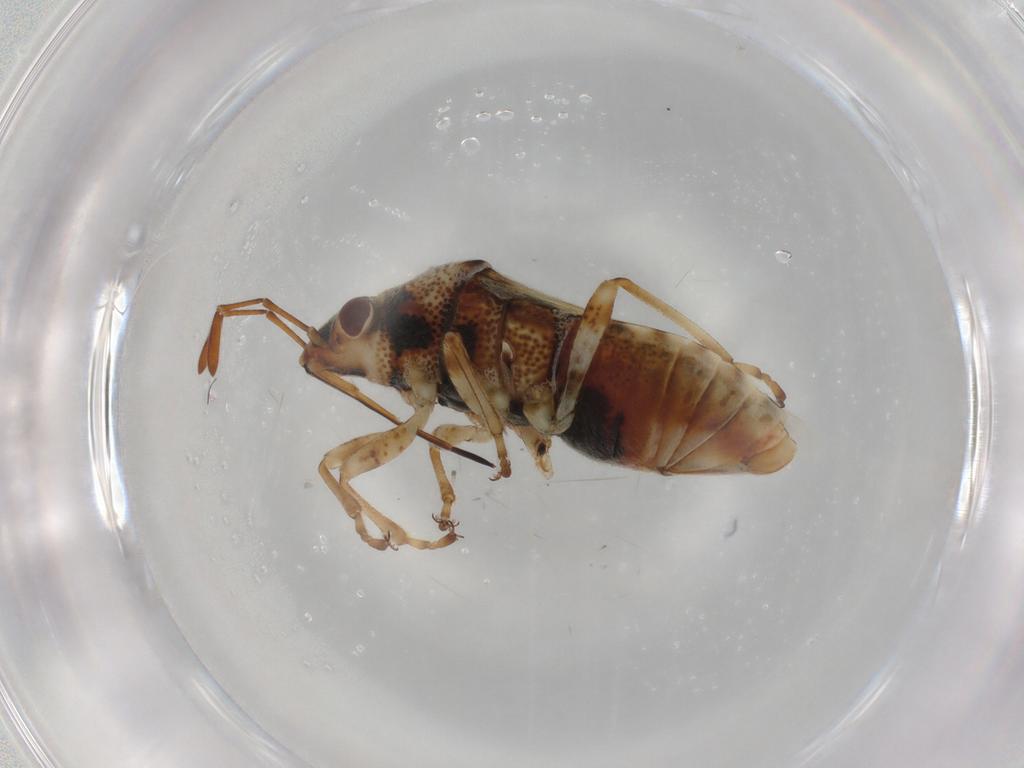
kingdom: Animalia
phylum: Arthropoda
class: Insecta
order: Hemiptera
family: Lygaeidae
